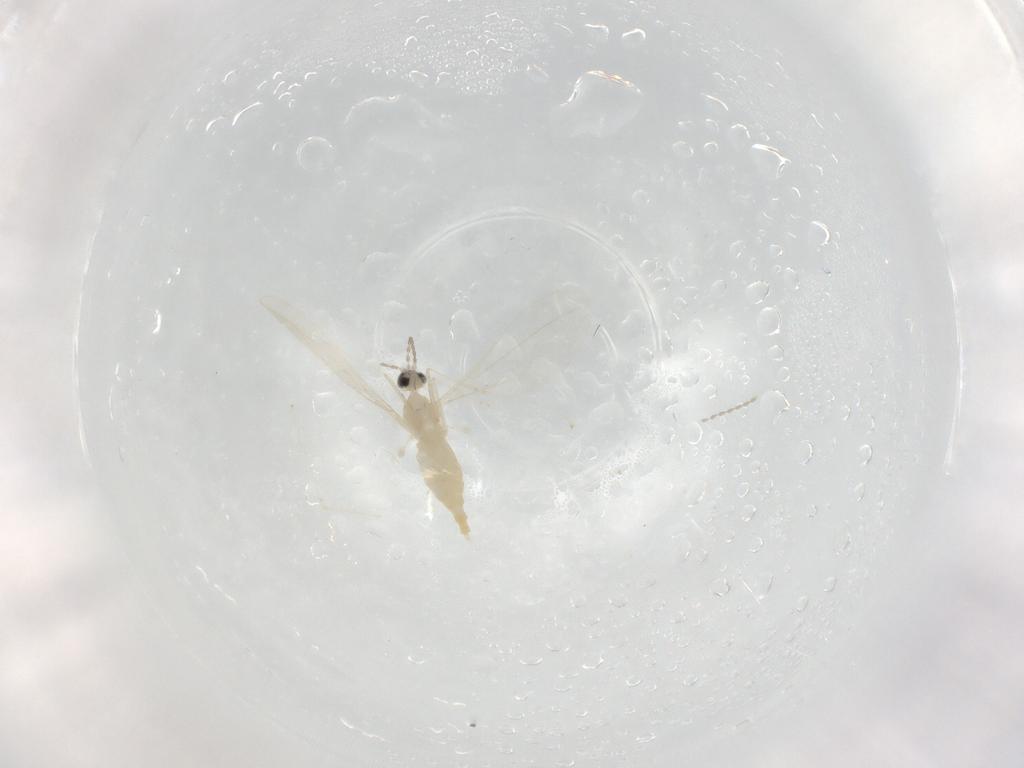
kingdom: Animalia
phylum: Arthropoda
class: Insecta
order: Diptera
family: Cecidomyiidae
